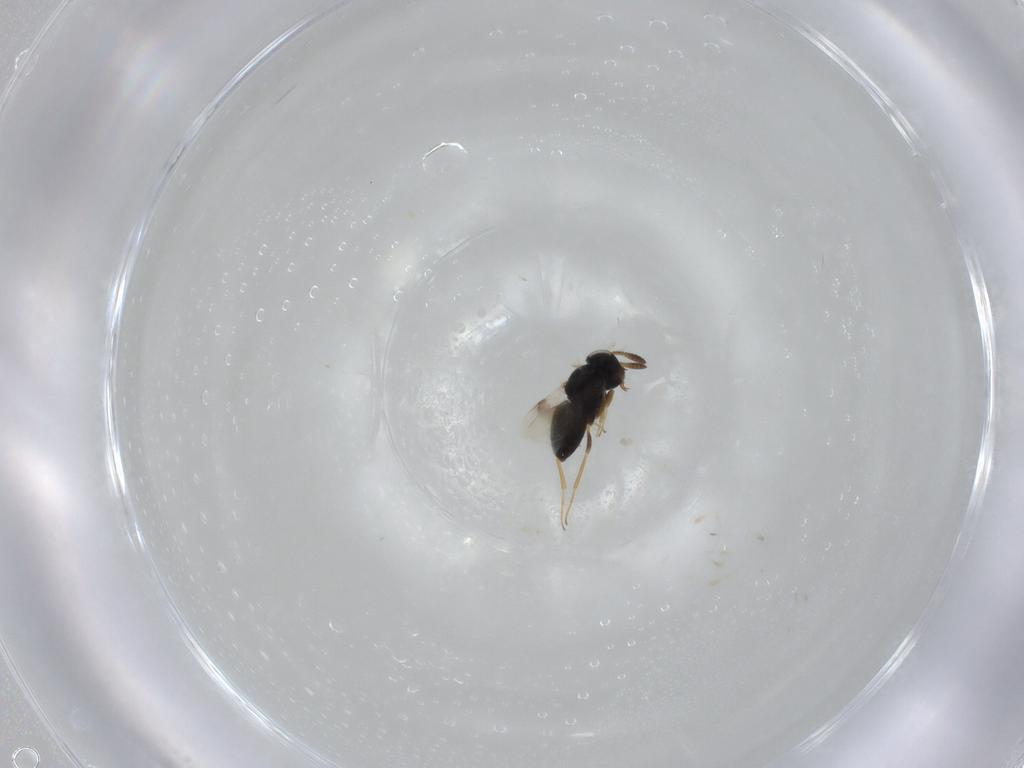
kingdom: Animalia
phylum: Arthropoda
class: Insecta
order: Hymenoptera
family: Scelionidae
